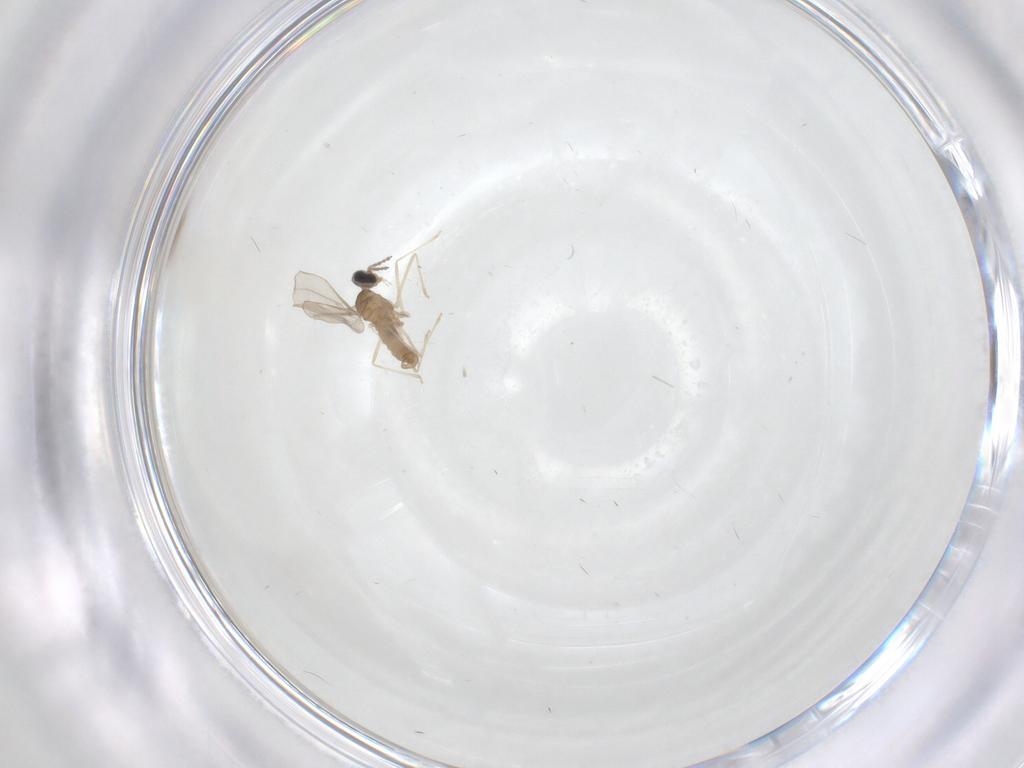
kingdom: Animalia
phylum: Arthropoda
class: Insecta
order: Diptera
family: Cecidomyiidae
